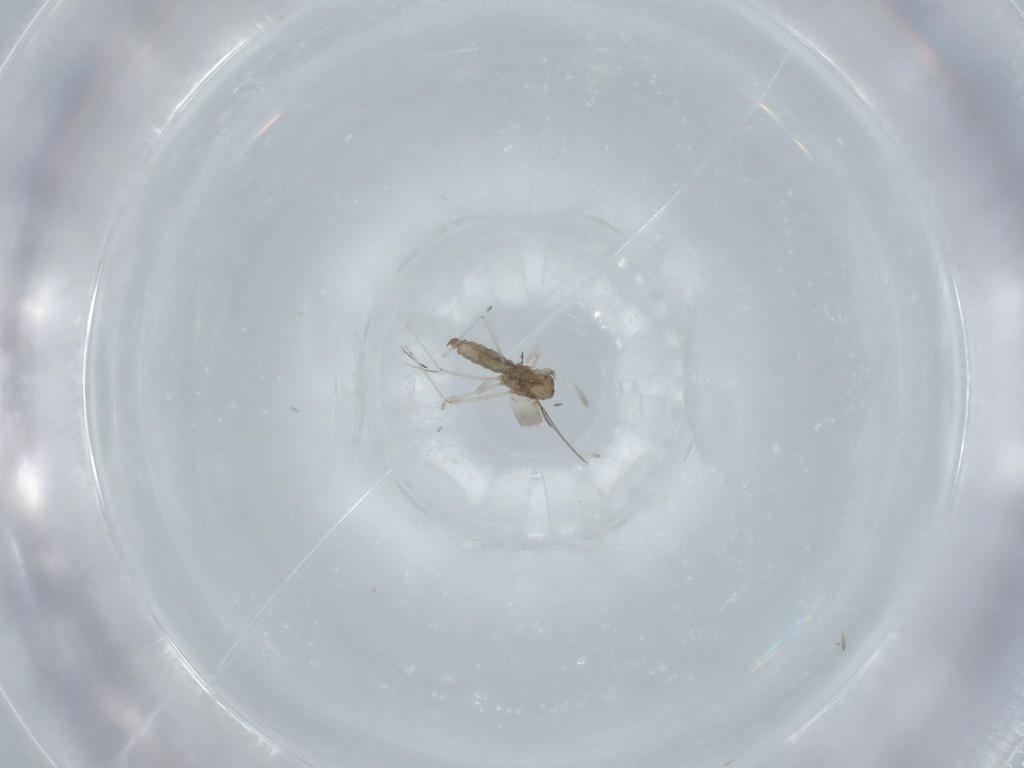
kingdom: Animalia
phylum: Arthropoda
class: Insecta
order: Diptera
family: Cecidomyiidae
